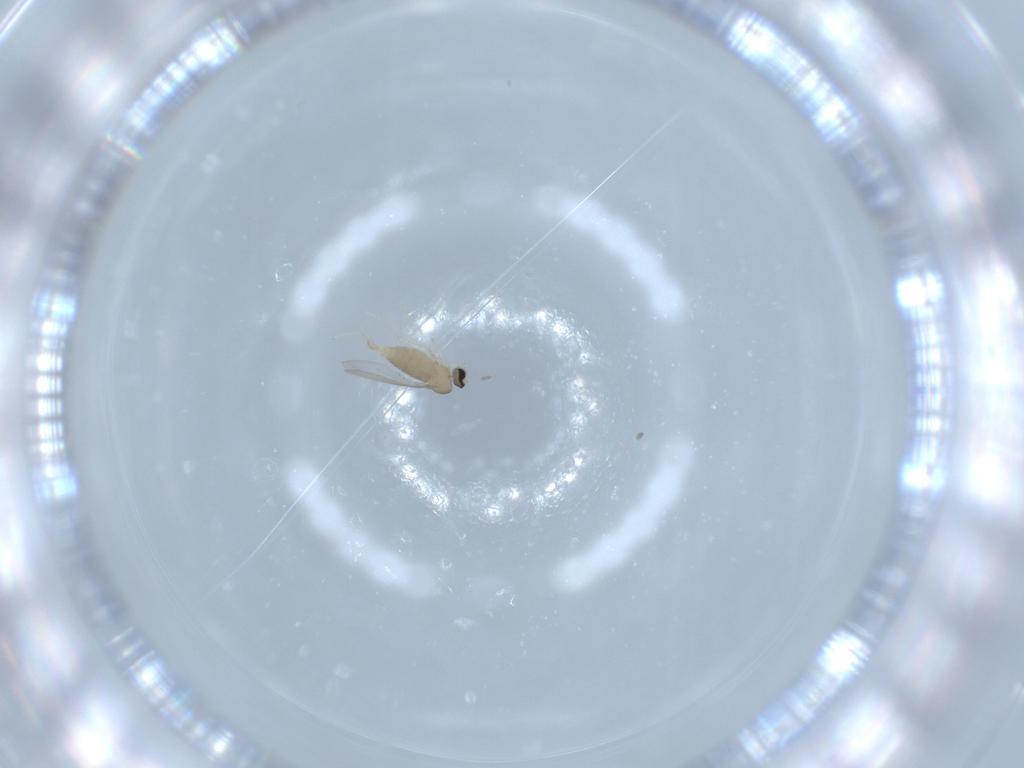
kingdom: Animalia
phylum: Arthropoda
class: Insecta
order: Diptera
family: Cecidomyiidae
